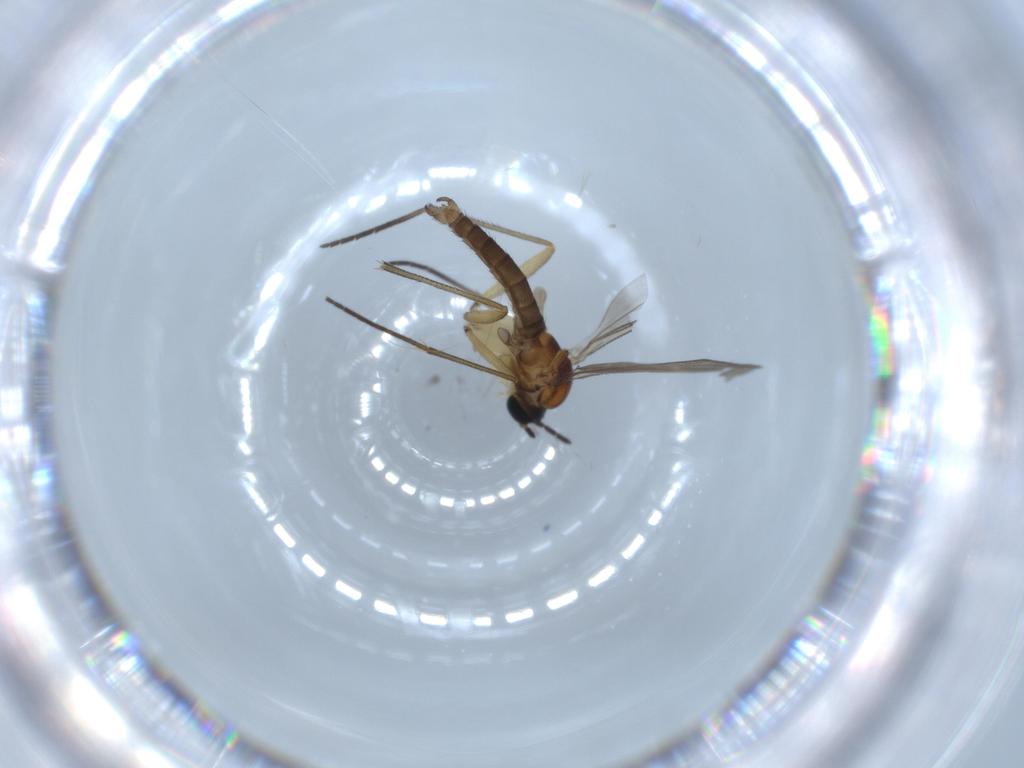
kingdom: Animalia
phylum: Arthropoda
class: Insecta
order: Diptera
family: Sciaridae
